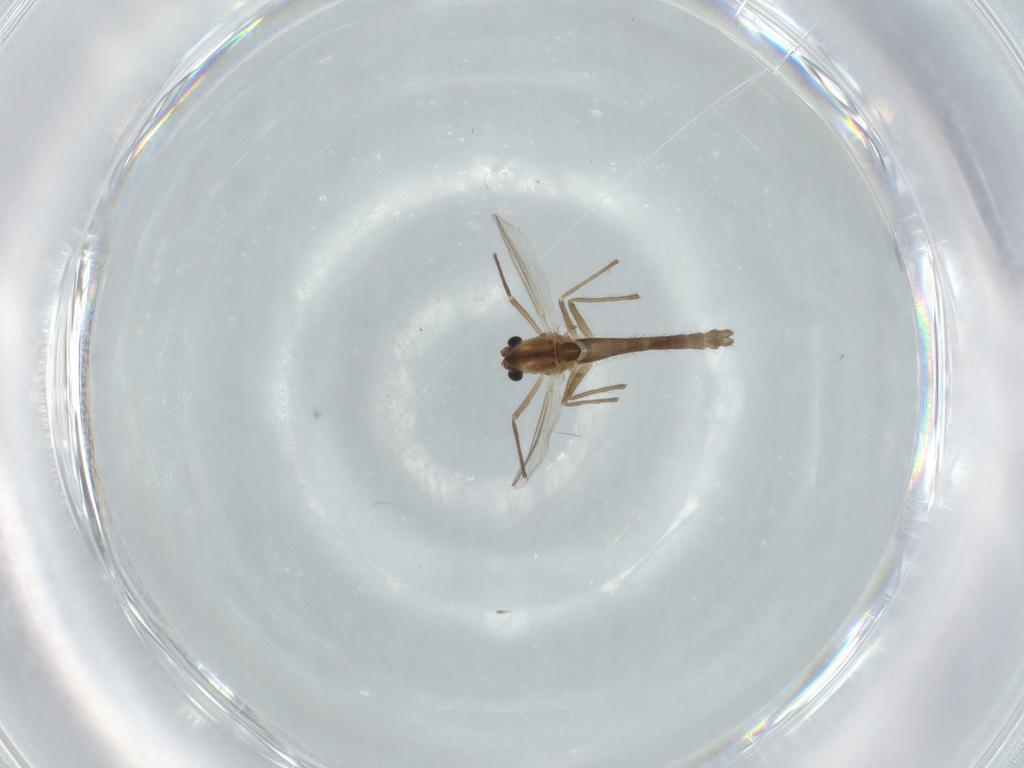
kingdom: Animalia
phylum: Arthropoda
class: Insecta
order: Diptera
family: Chironomidae
